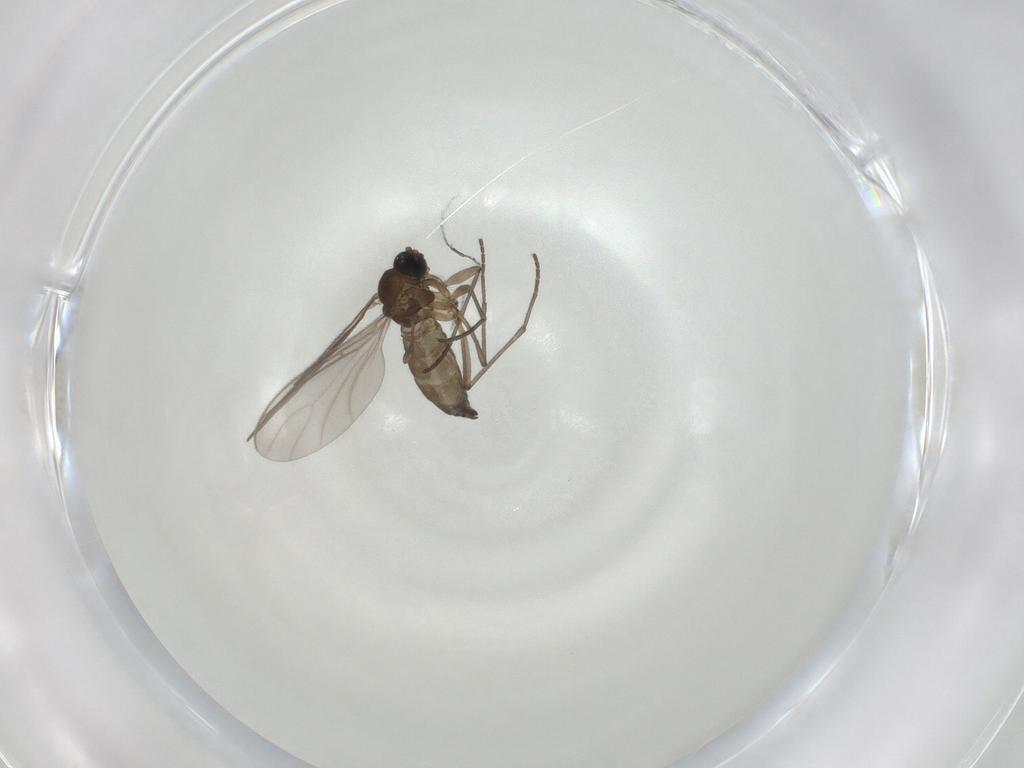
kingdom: Animalia
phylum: Arthropoda
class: Insecta
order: Diptera
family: Sciaridae
